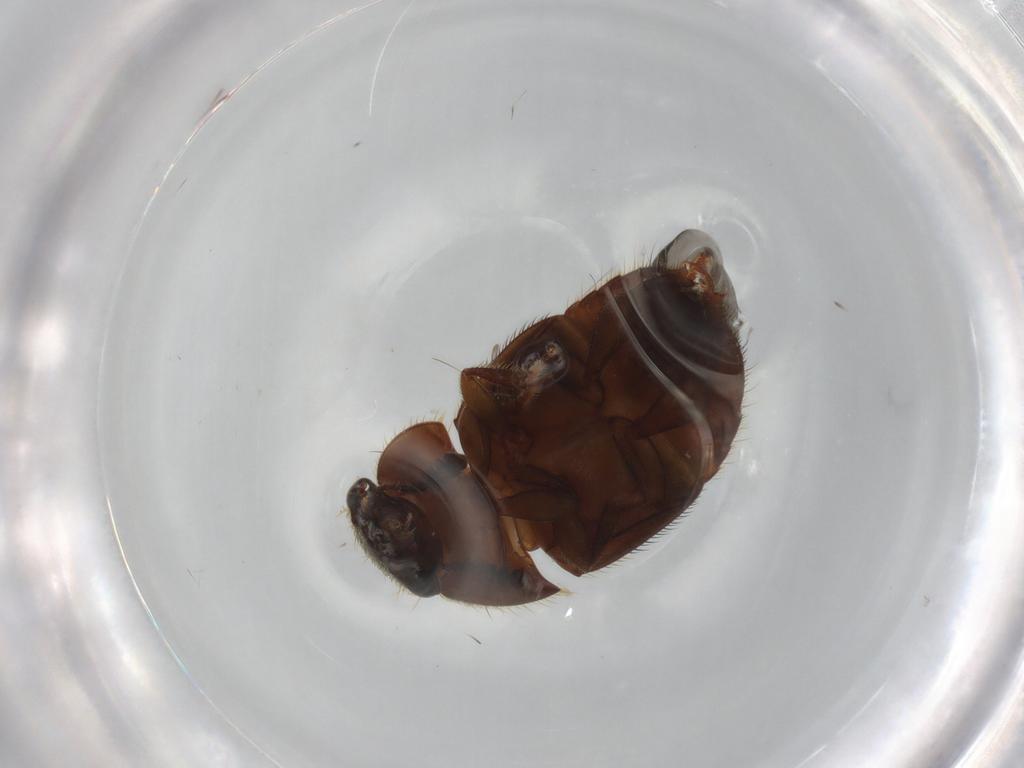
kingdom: Animalia
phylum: Arthropoda
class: Insecta
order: Coleoptera
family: Nitidulidae
